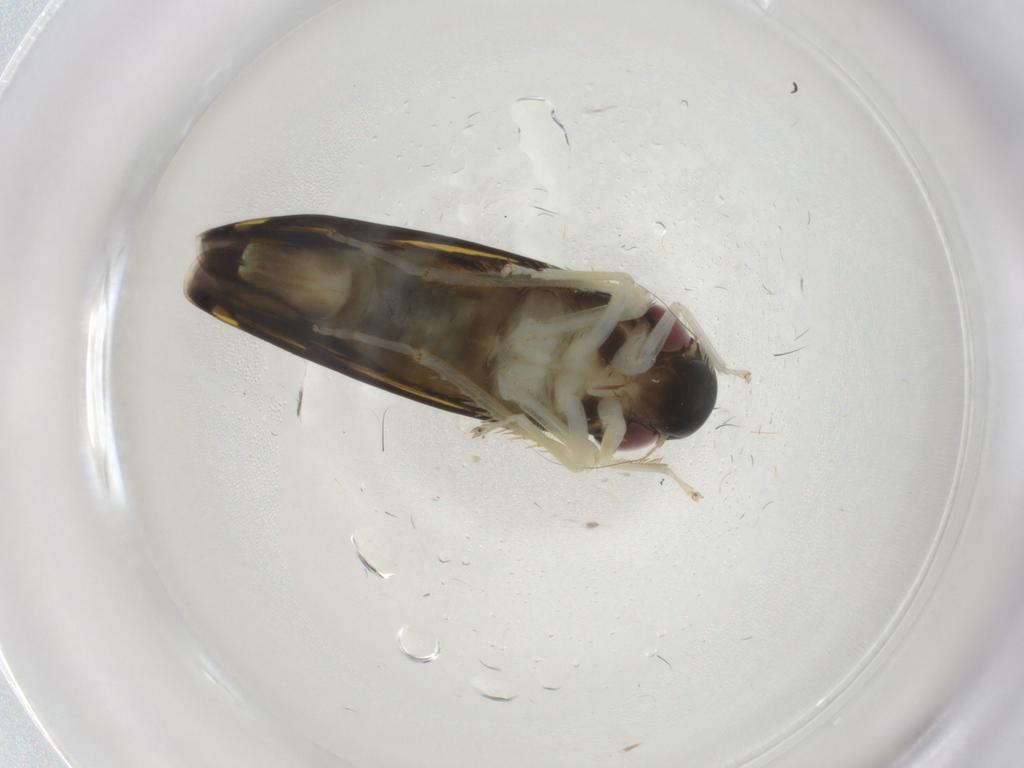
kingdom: Animalia
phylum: Arthropoda
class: Insecta
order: Hemiptera
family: Cicadellidae
